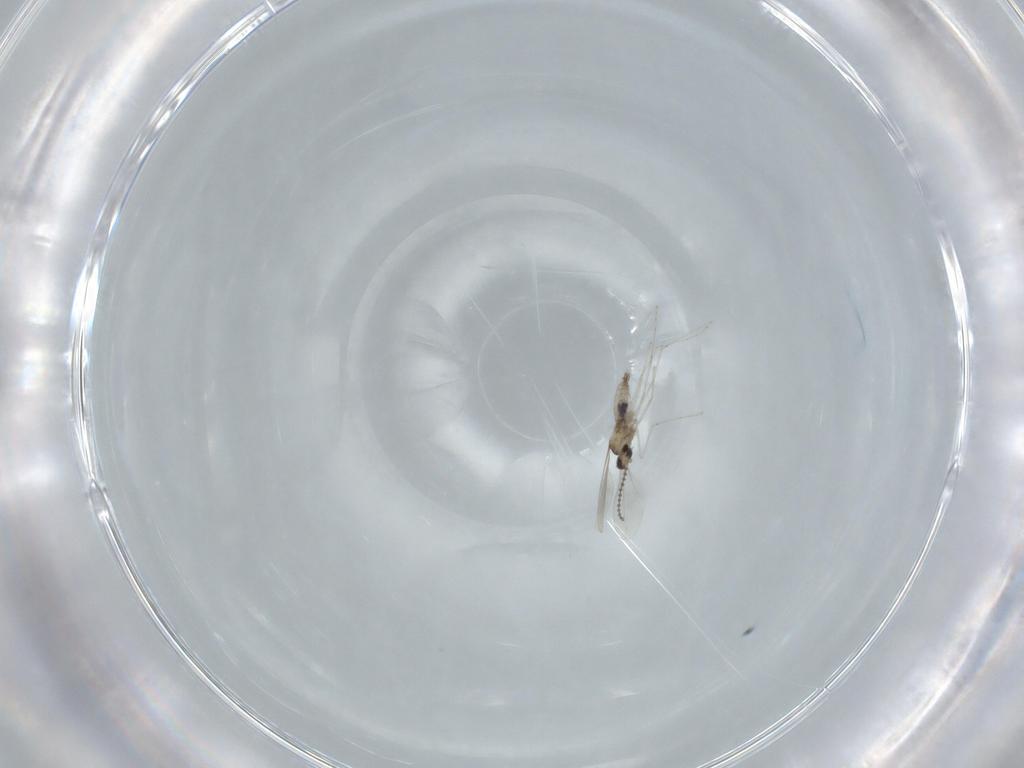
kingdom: Animalia
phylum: Arthropoda
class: Insecta
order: Diptera
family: Cecidomyiidae
